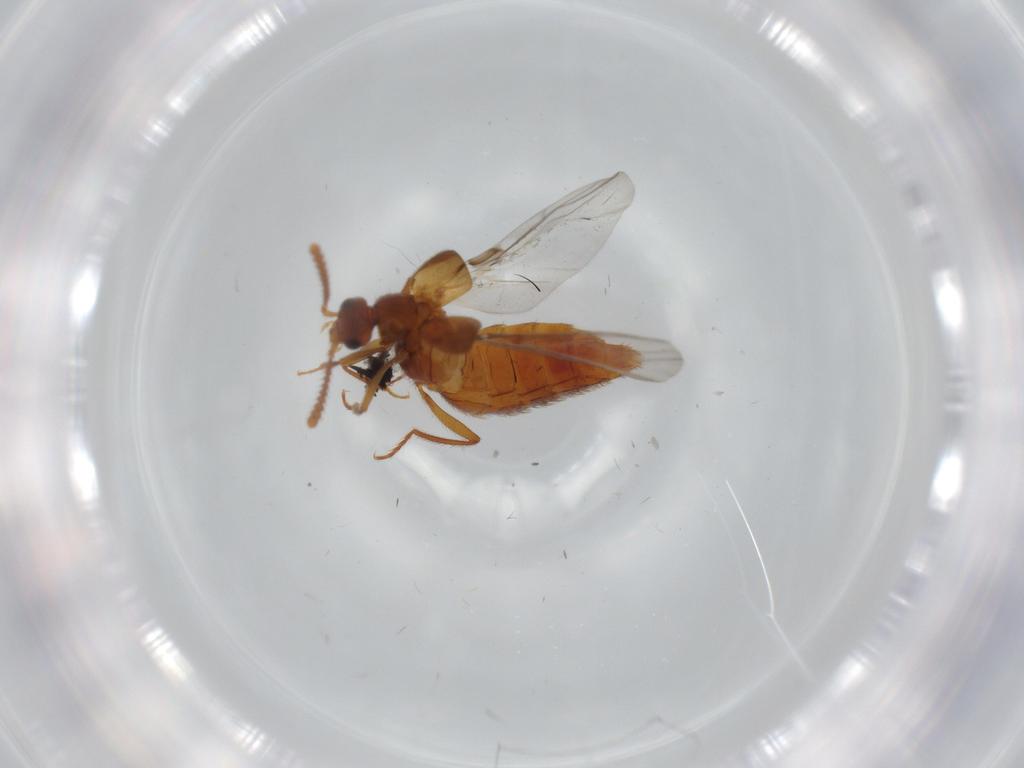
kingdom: Animalia
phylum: Arthropoda
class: Insecta
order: Coleoptera
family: Staphylinidae
